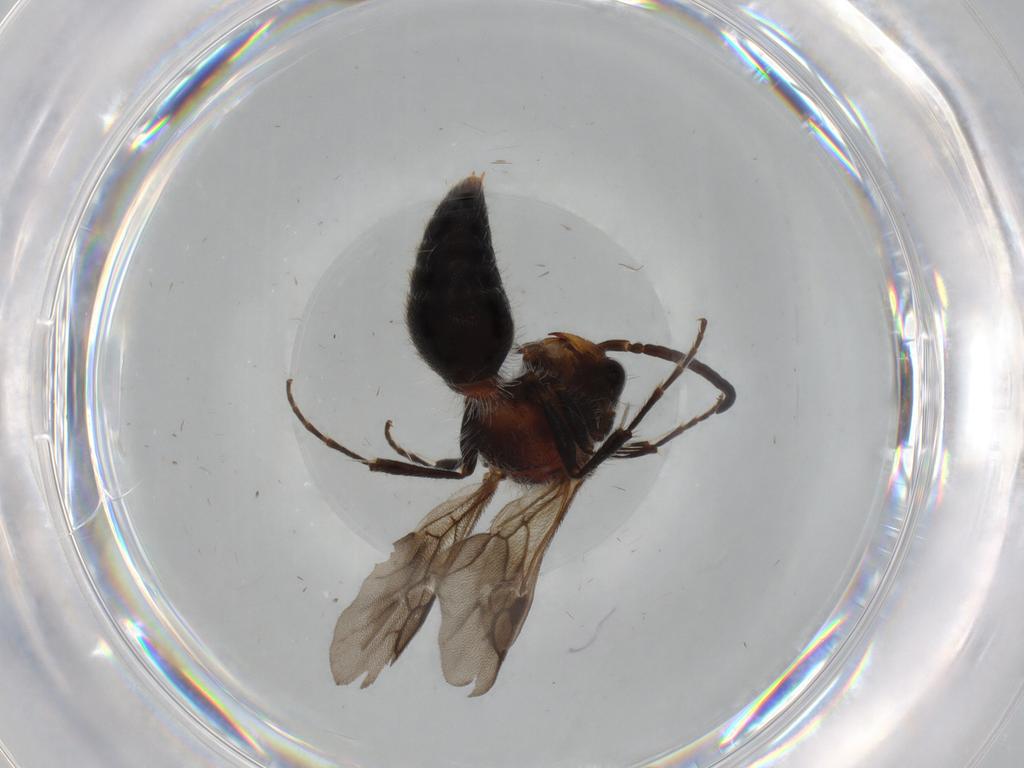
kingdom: Animalia
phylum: Arthropoda
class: Insecta
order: Hymenoptera
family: Mutillidae
